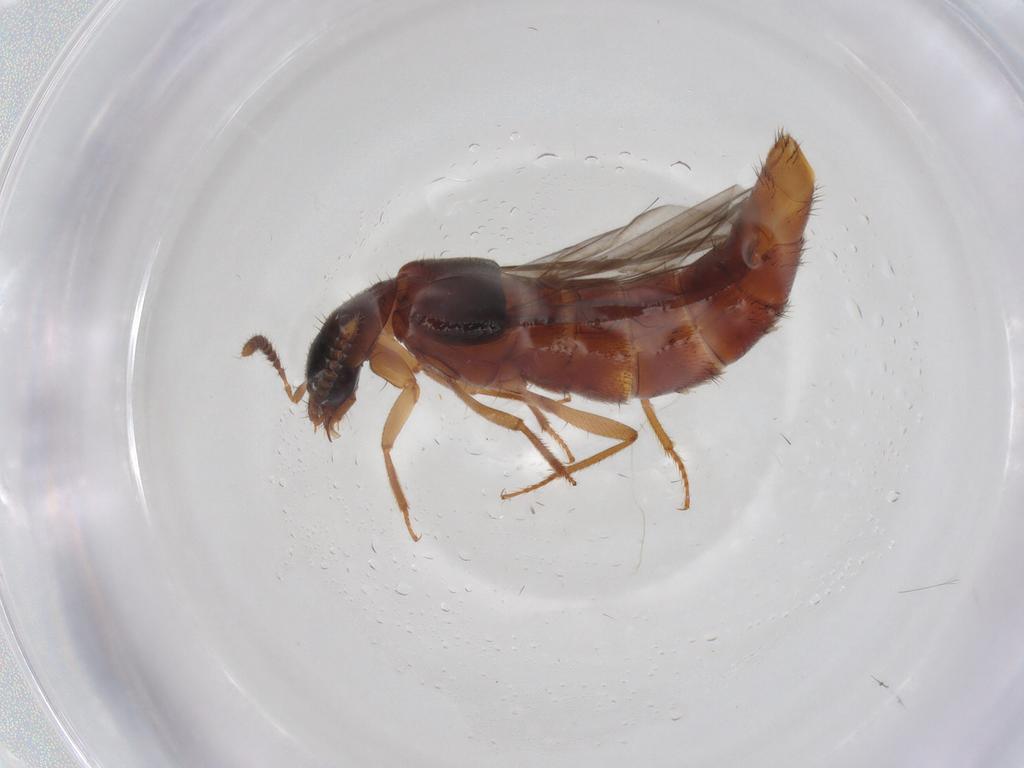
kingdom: Animalia
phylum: Arthropoda
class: Insecta
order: Coleoptera
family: Staphylinidae
